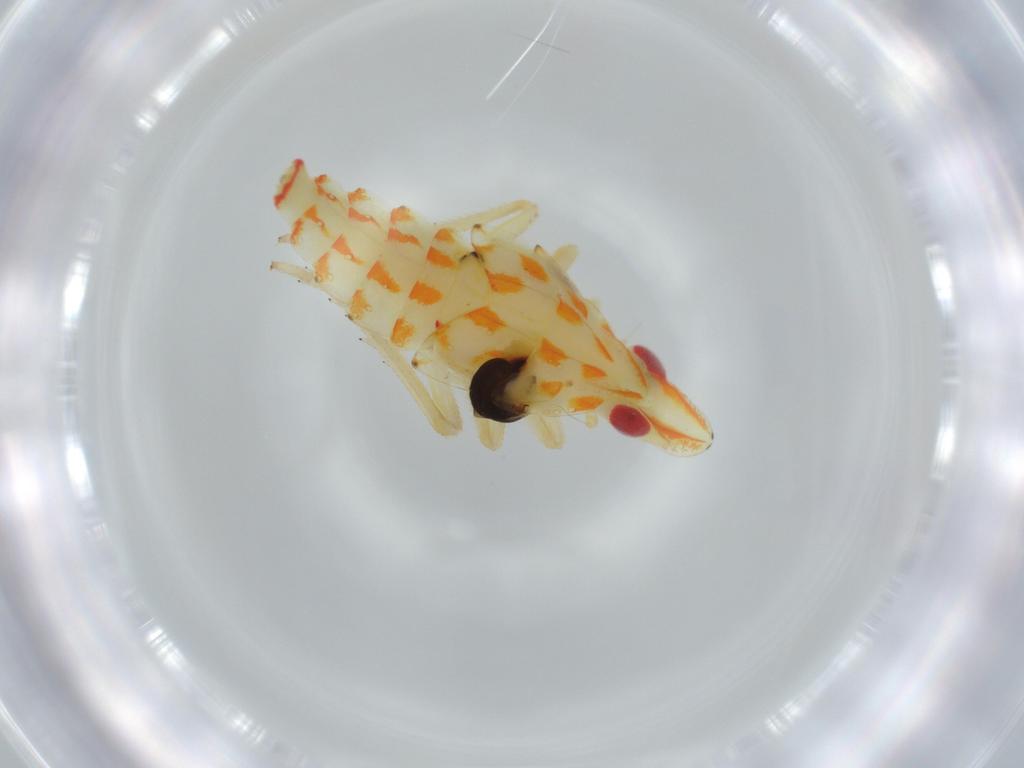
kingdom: Animalia
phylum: Arthropoda
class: Insecta
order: Hemiptera
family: Tropiduchidae
